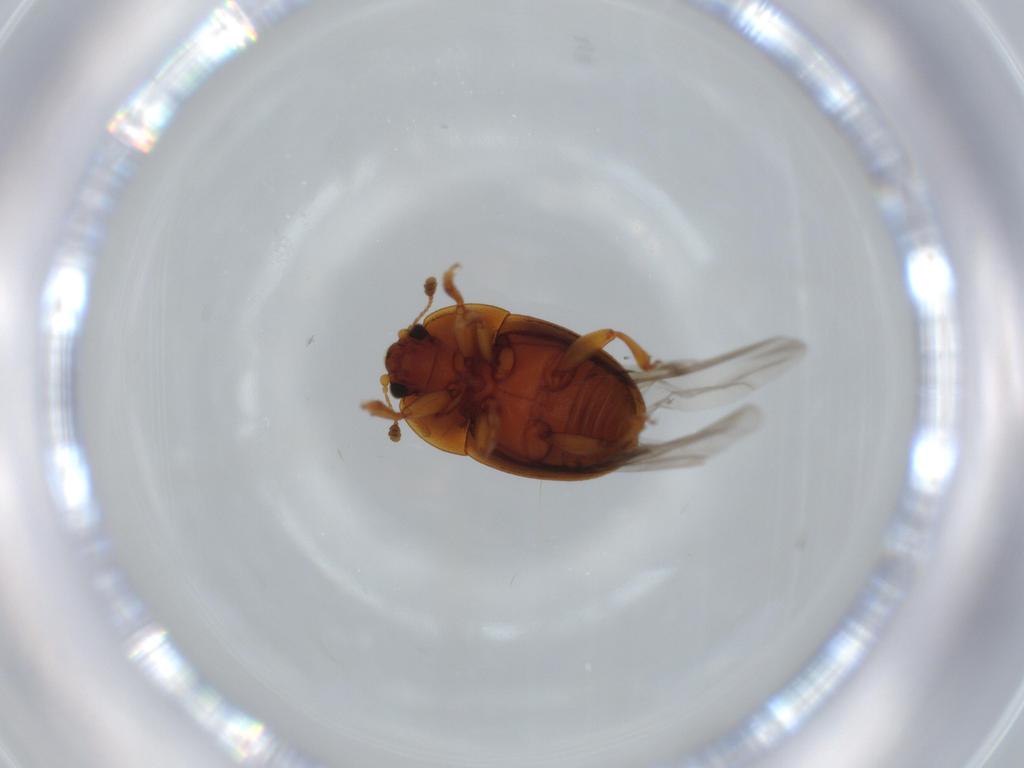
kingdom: Animalia
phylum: Arthropoda
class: Insecta
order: Coleoptera
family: Nitidulidae
